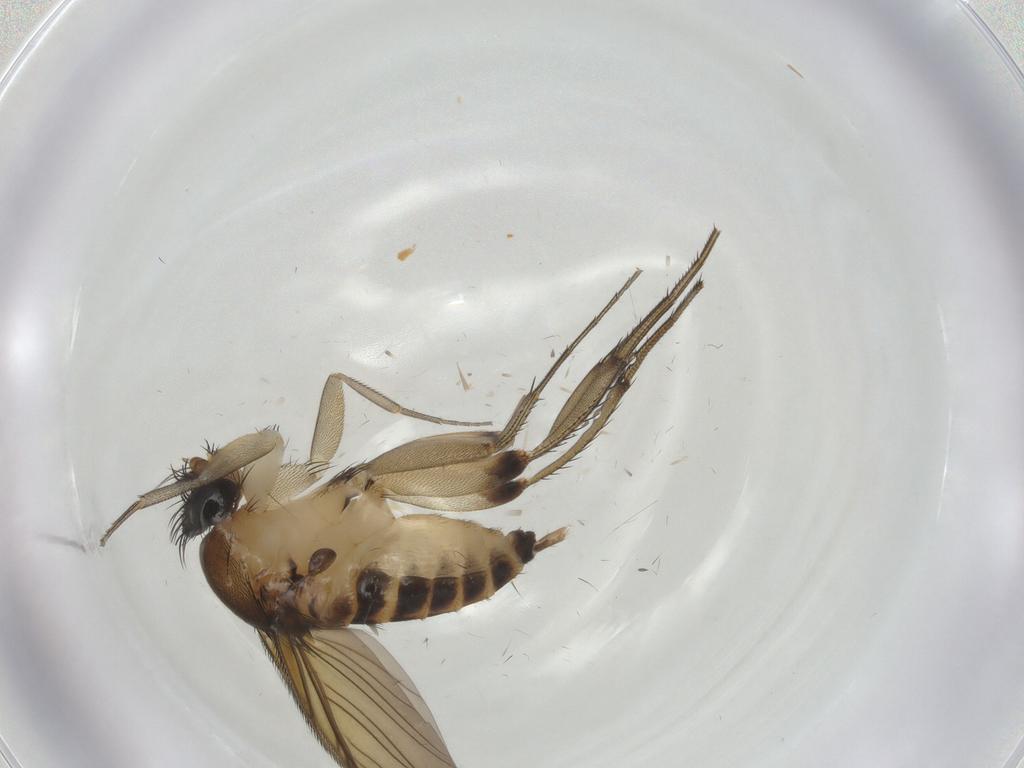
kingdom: Animalia
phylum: Arthropoda
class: Insecta
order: Diptera
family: Phoridae
